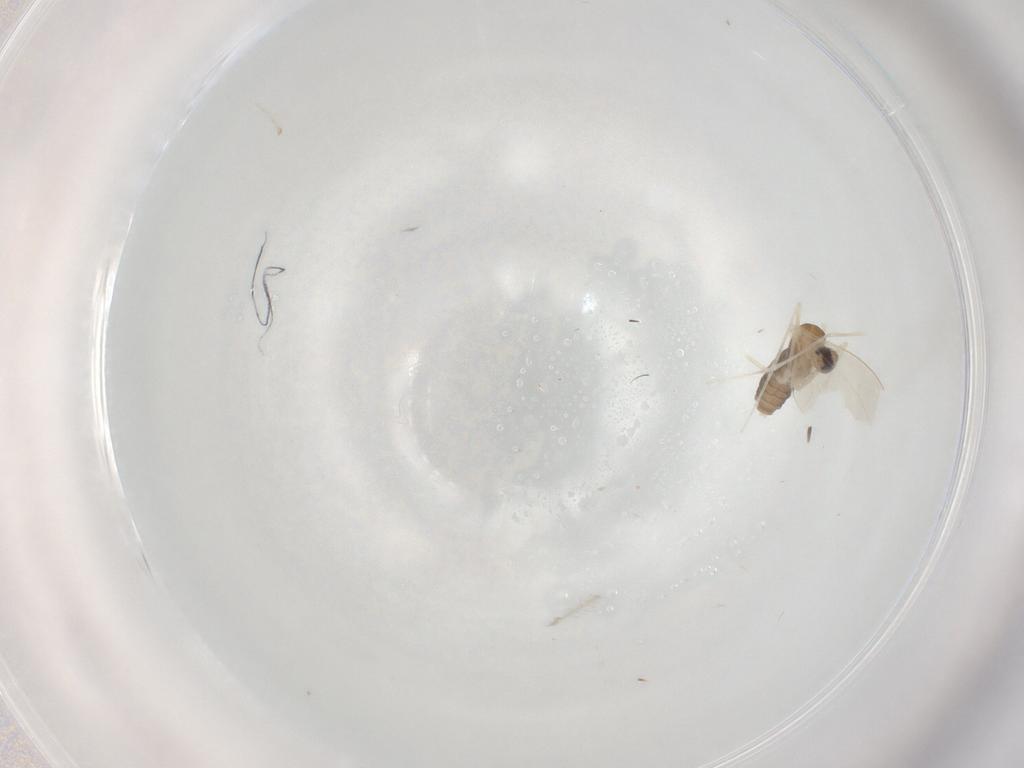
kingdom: Animalia
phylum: Arthropoda
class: Insecta
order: Diptera
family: Cecidomyiidae
